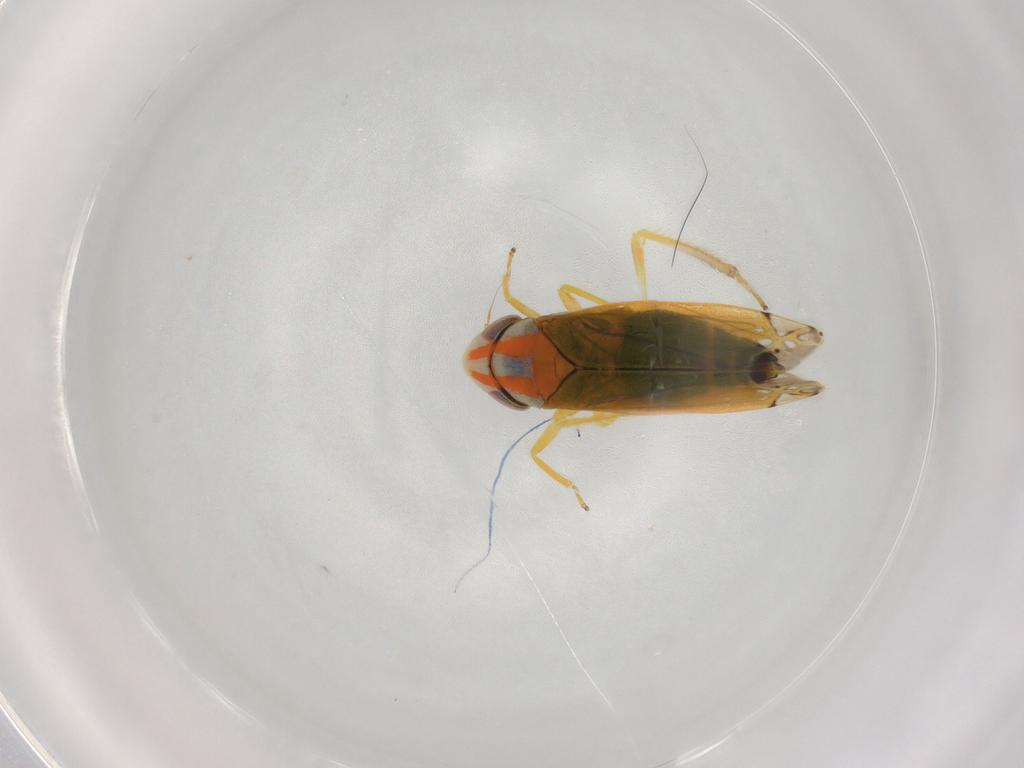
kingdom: Animalia
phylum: Arthropoda
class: Insecta
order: Hemiptera
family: Cicadellidae
